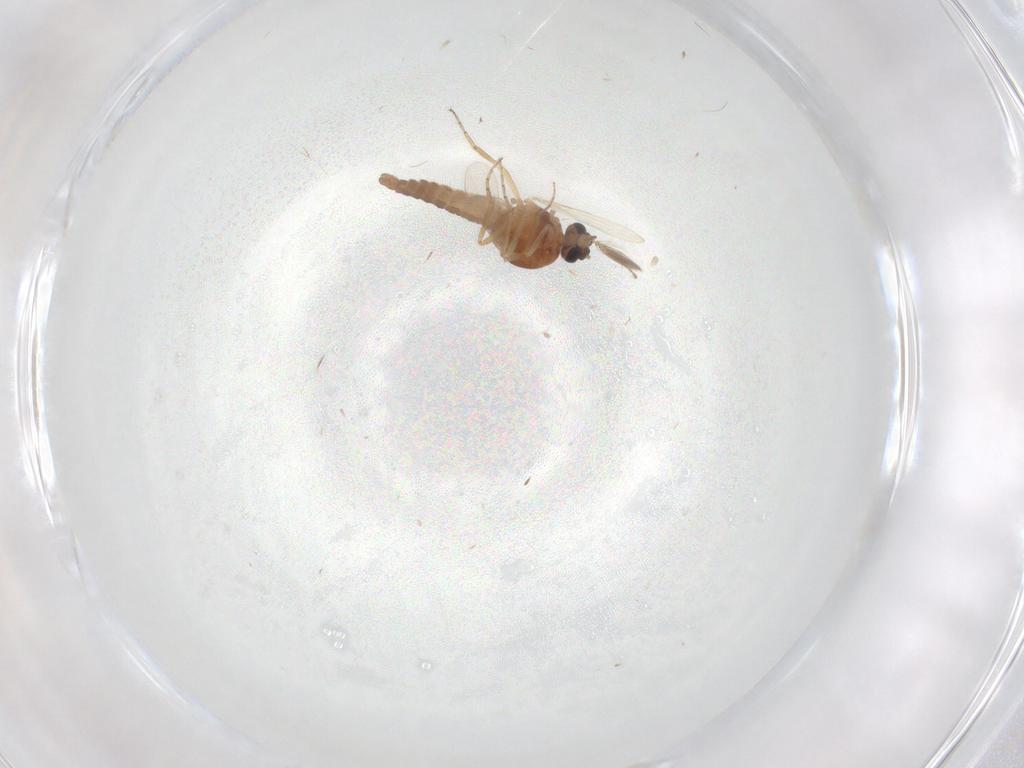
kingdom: Animalia
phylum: Arthropoda
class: Insecta
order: Diptera
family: Ceratopogonidae
